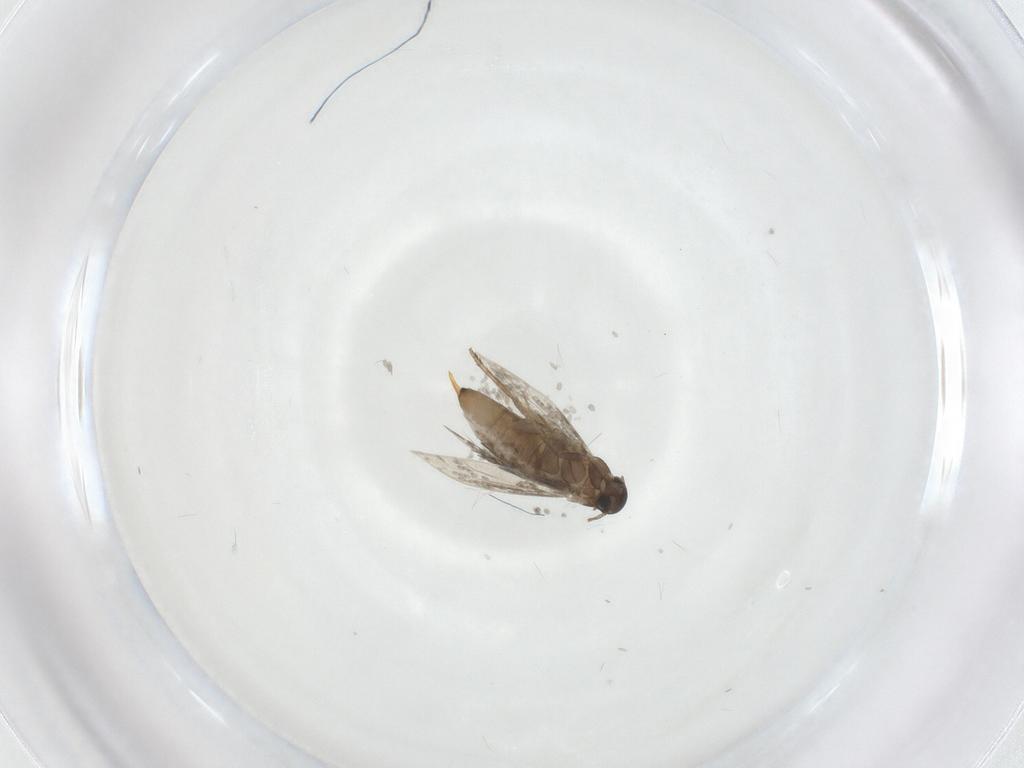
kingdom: Animalia
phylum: Arthropoda
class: Insecta
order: Lepidoptera
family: Heliozelidae
